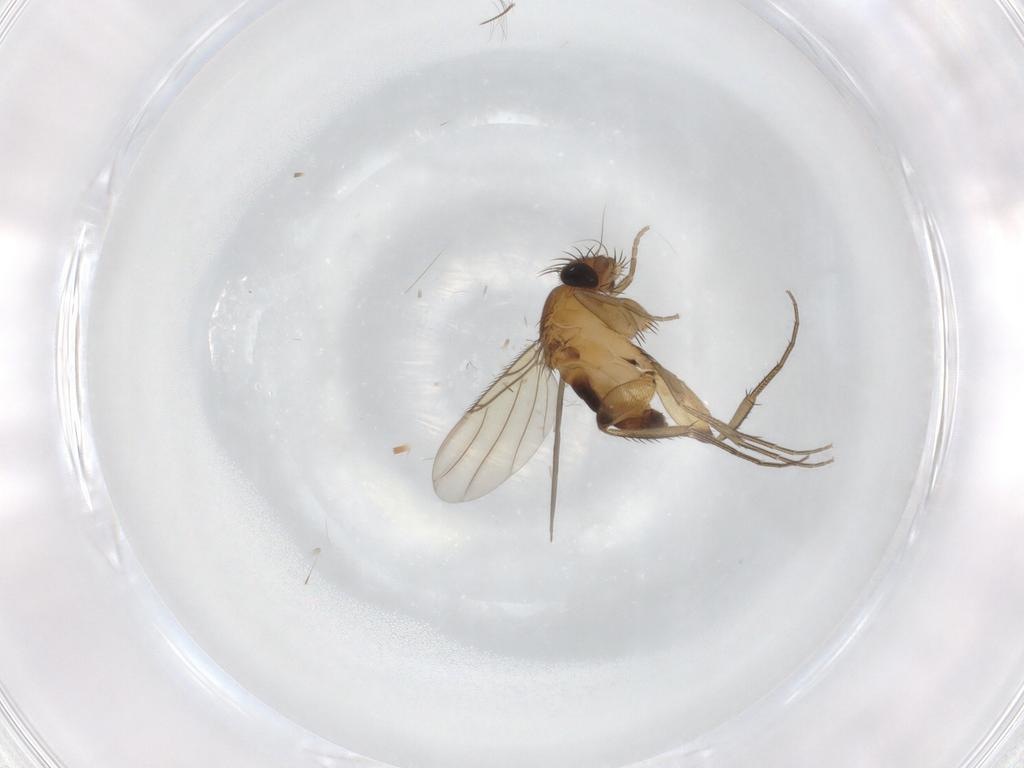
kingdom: Animalia
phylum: Arthropoda
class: Insecta
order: Diptera
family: Phoridae
